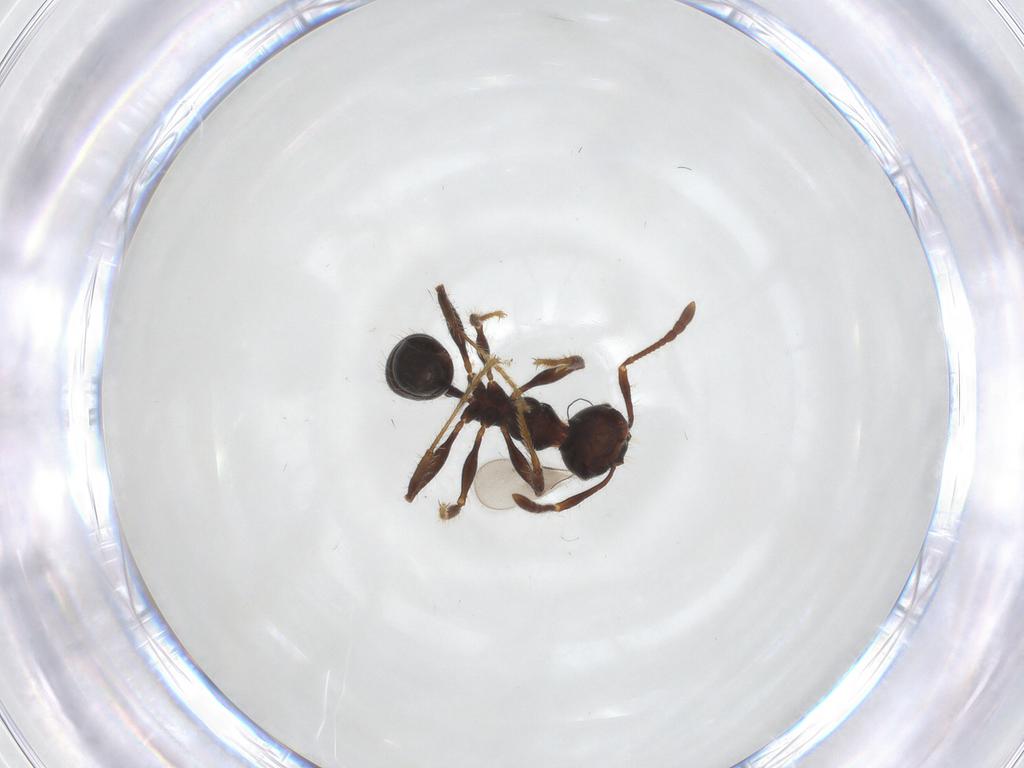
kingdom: Animalia
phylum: Arthropoda
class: Insecta
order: Hymenoptera
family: Formicidae
